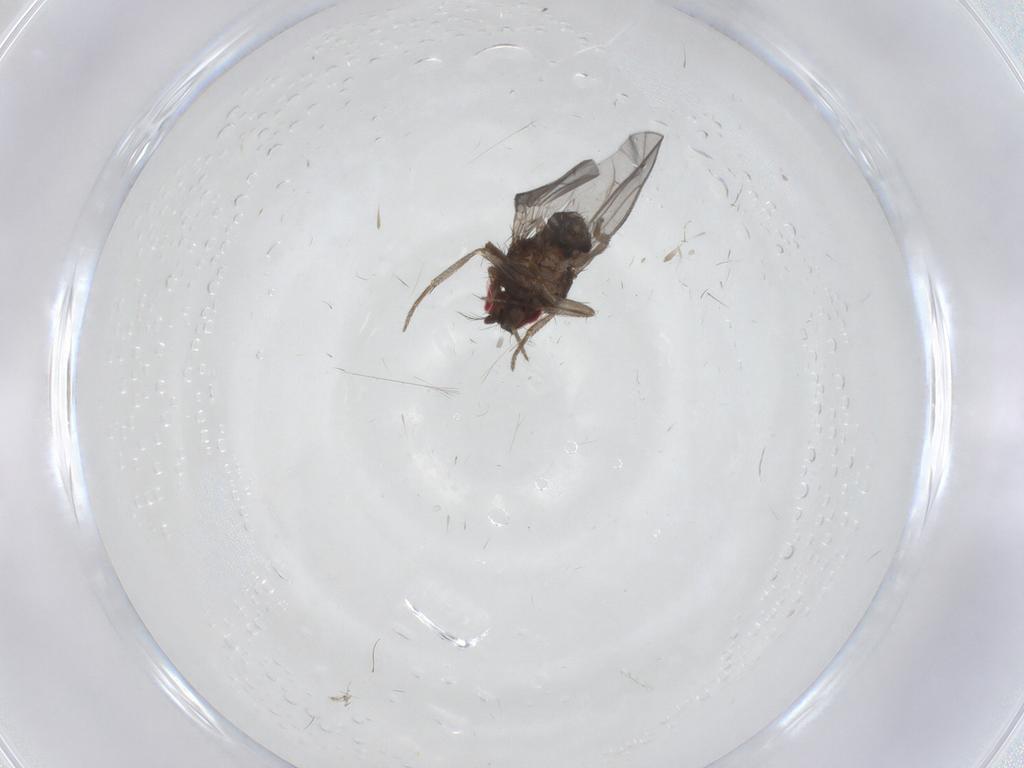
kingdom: Animalia
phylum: Arthropoda
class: Insecta
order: Diptera
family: Drosophilidae
